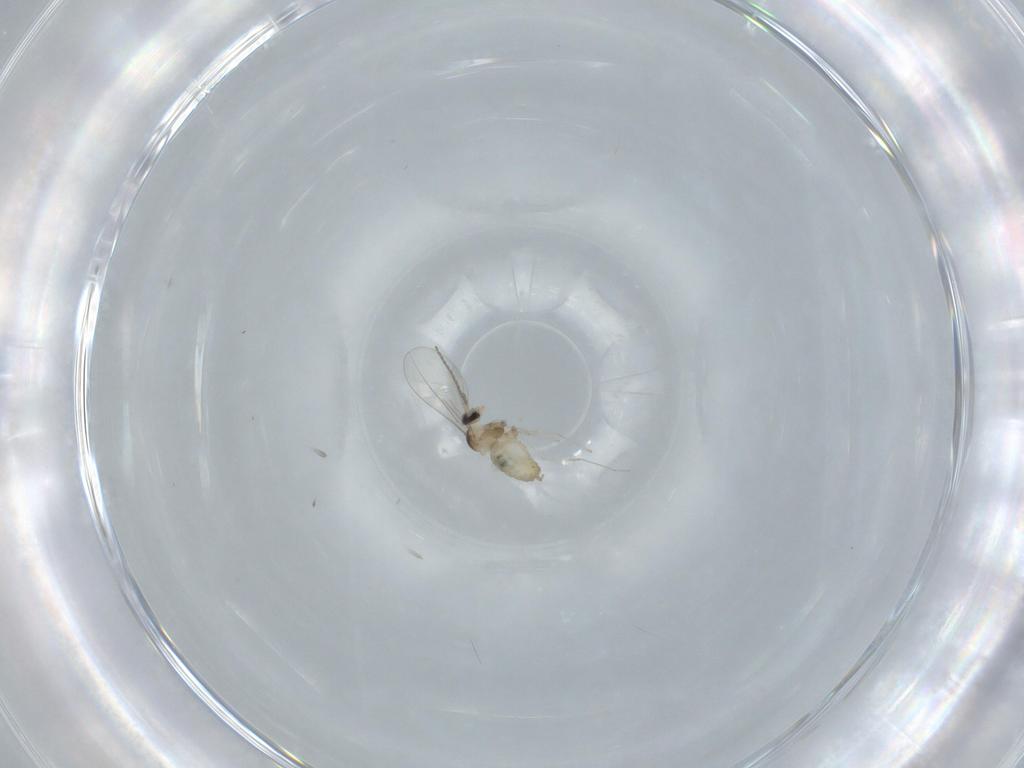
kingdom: Animalia
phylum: Arthropoda
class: Insecta
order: Diptera
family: Cecidomyiidae
